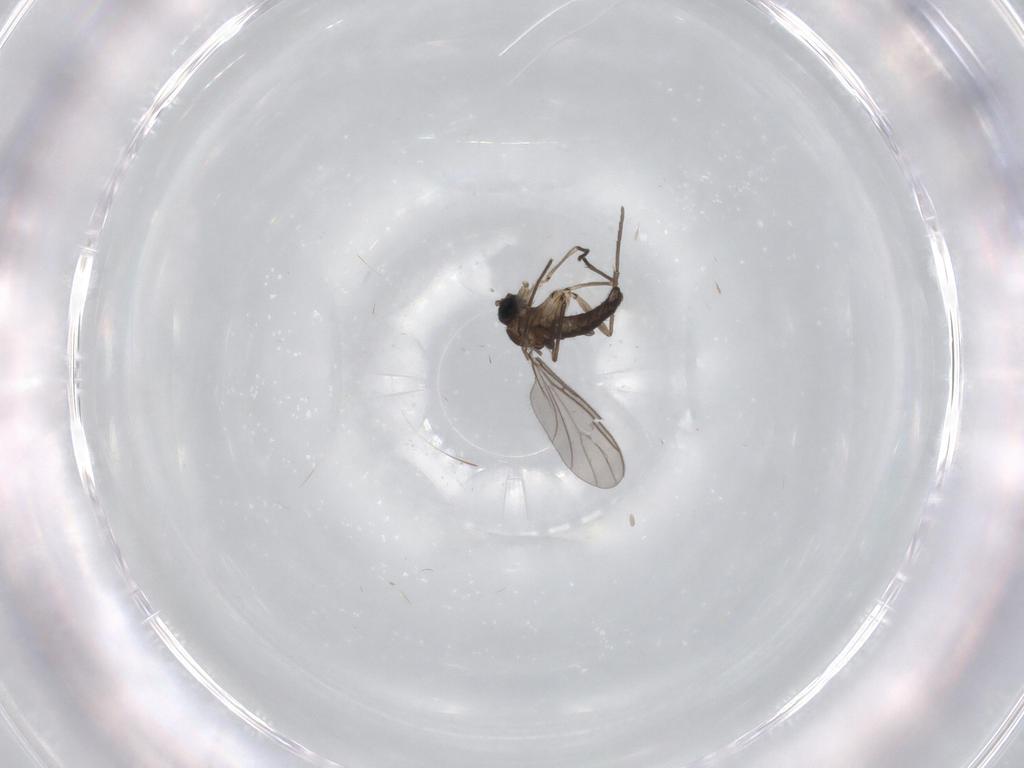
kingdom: Animalia
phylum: Arthropoda
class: Insecta
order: Diptera
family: Sciaridae
